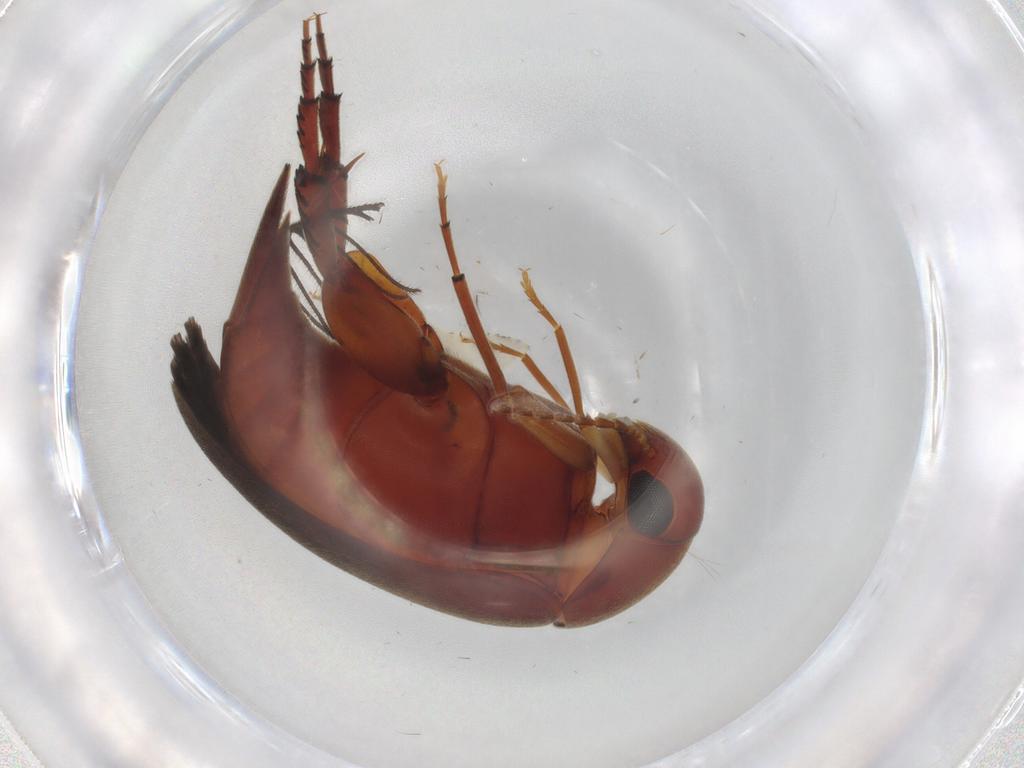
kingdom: Animalia
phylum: Arthropoda
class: Insecta
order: Coleoptera
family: Mordellidae
